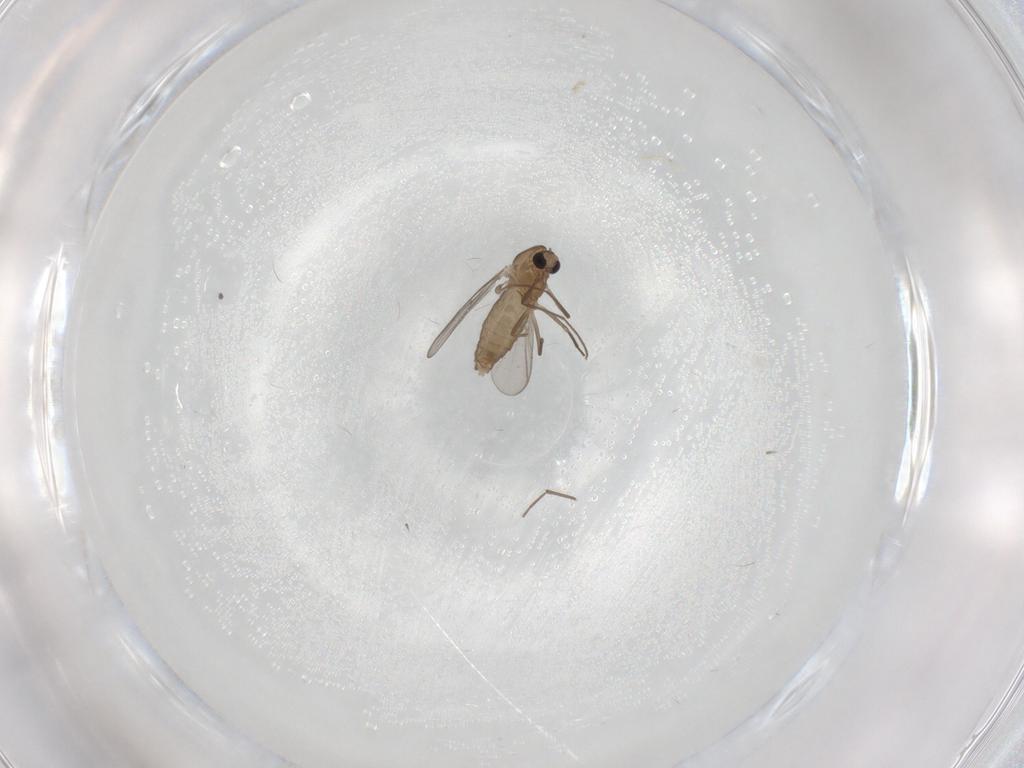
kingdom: Animalia
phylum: Arthropoda
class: Insecta
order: Diptera
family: Chironomidae
